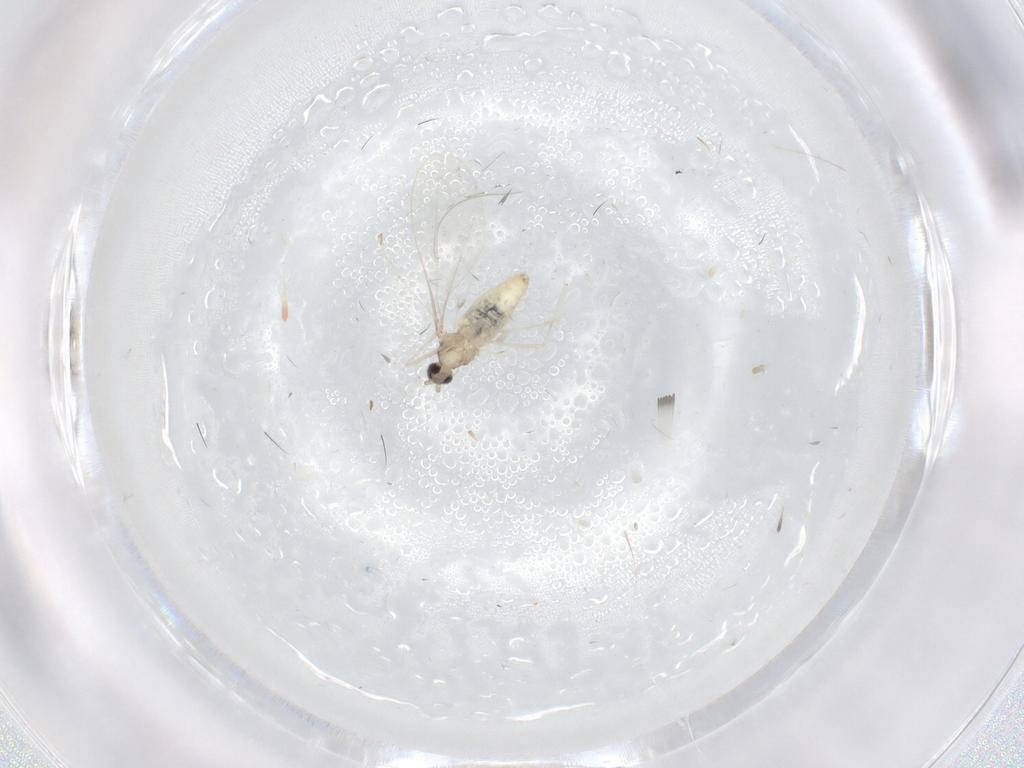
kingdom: Animalia
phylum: Arthropoda
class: Insecta
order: Diptera
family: Cecidomyiidae
